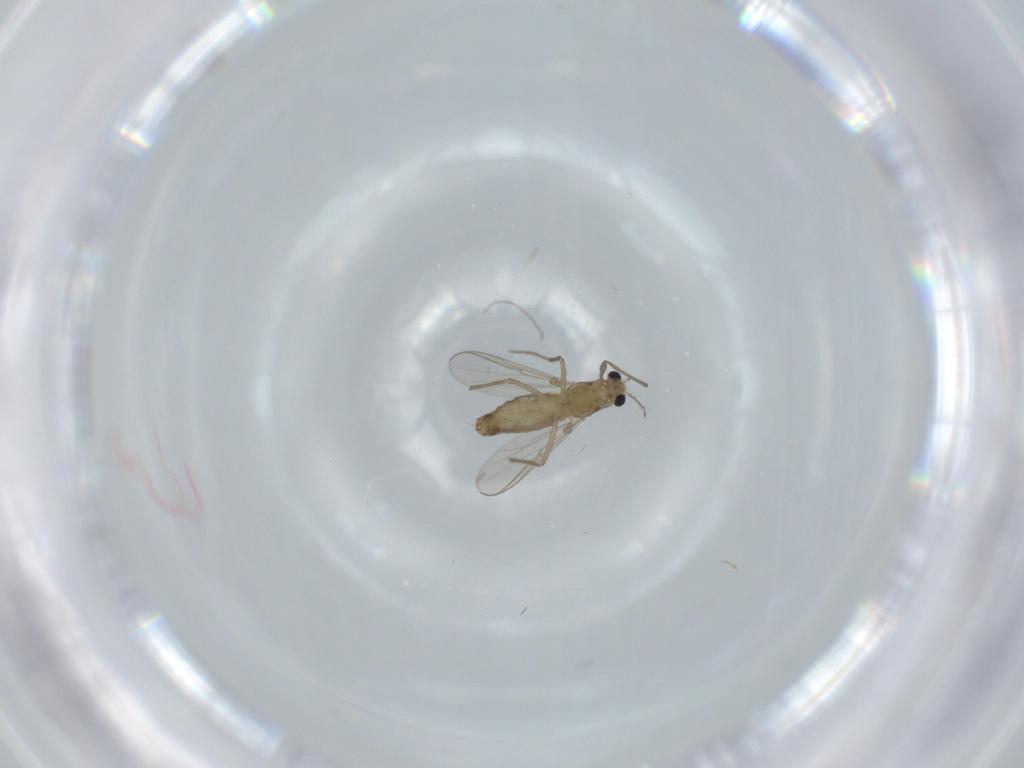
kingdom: Animalia
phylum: Arthropoda
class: Insecta
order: Diptera
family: Chironomidae
